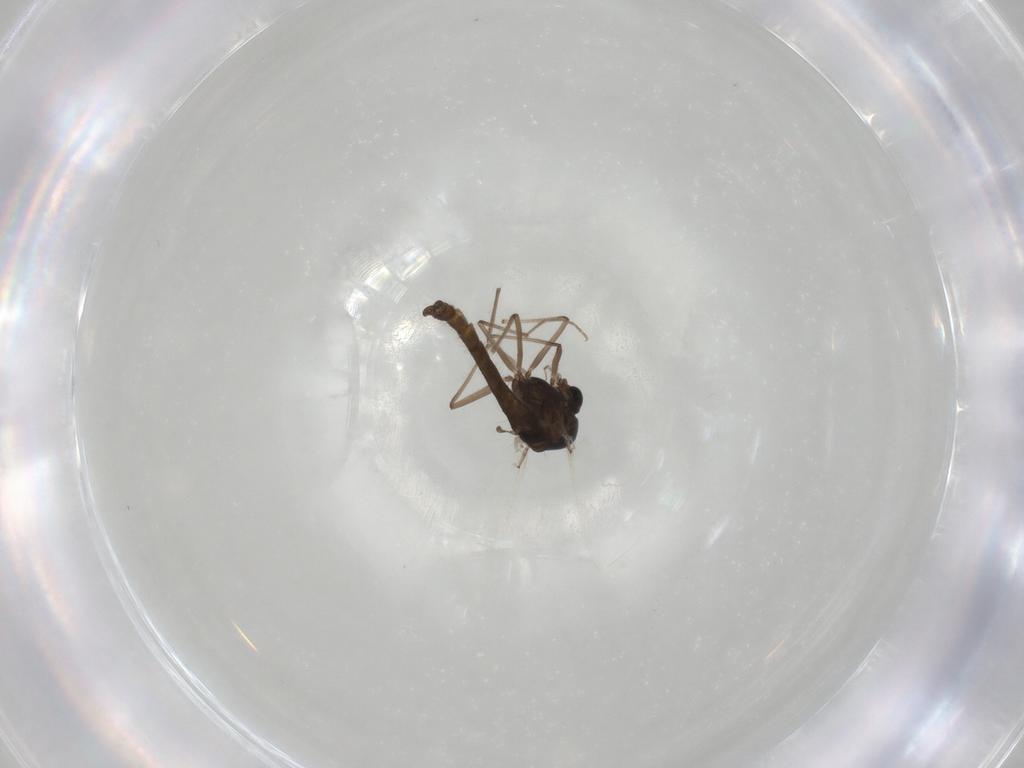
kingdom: Animalia
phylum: Arthropoda
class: Insecta
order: Diptera
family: Chironomidae
